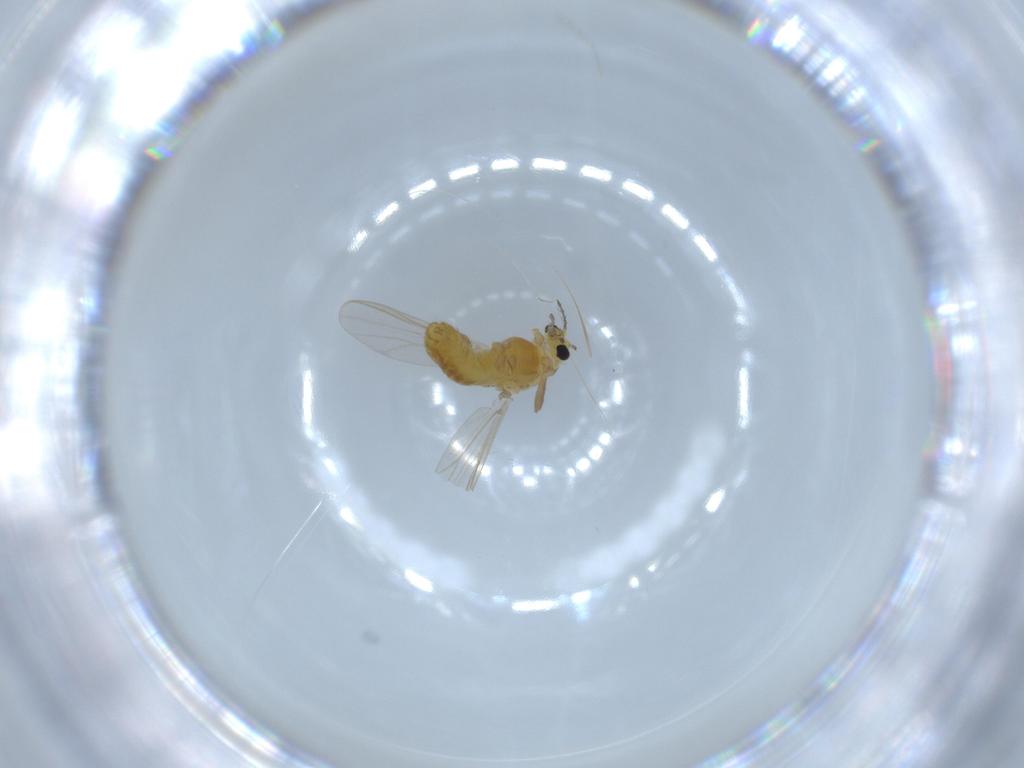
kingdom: Animalia
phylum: Arthropoda
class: Insecta
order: Diptera
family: Chironomidae
